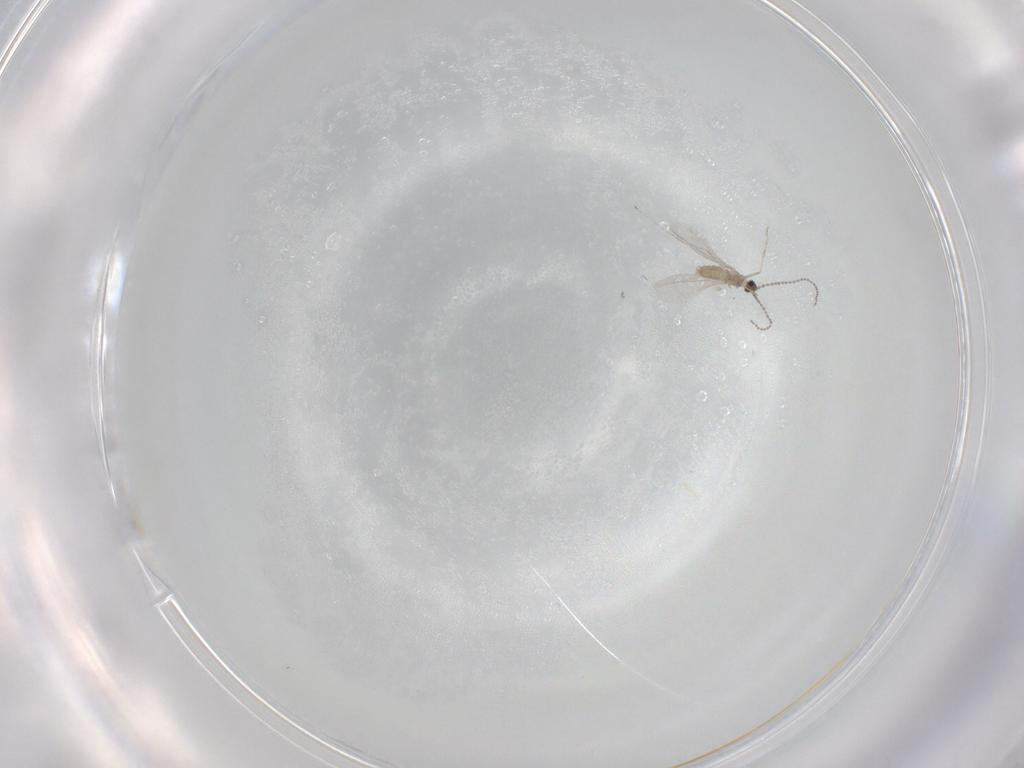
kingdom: Animalia
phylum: Arthropoda
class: Insecta
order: Diptera
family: Cecidomyiidae
